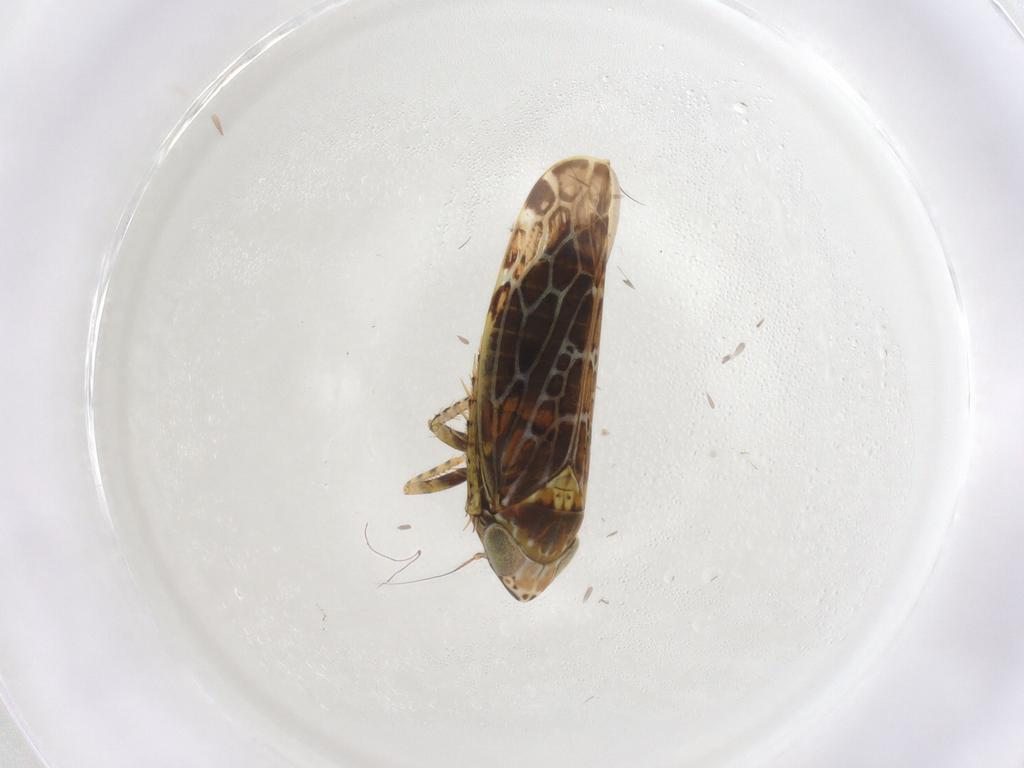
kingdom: Animalia
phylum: Arthropoda
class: Insecta
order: Hemiptera
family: Cicadellidae
